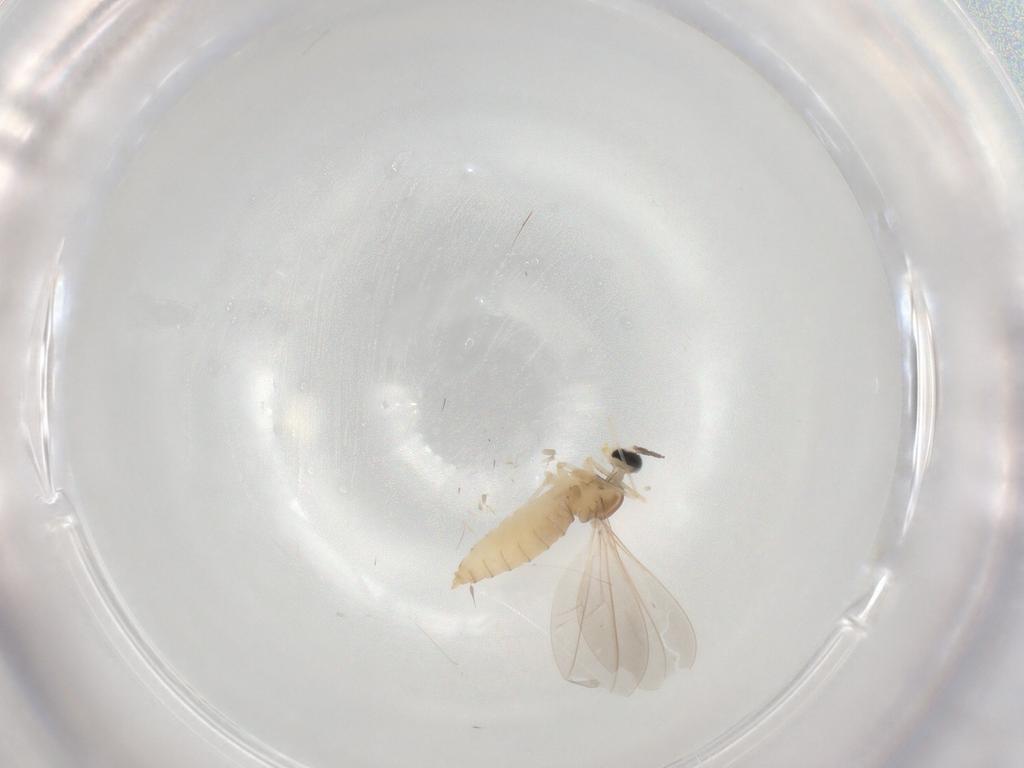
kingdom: Animalia
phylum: Arthropoda
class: Insecta
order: Diptera
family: Cecidomyiidae
